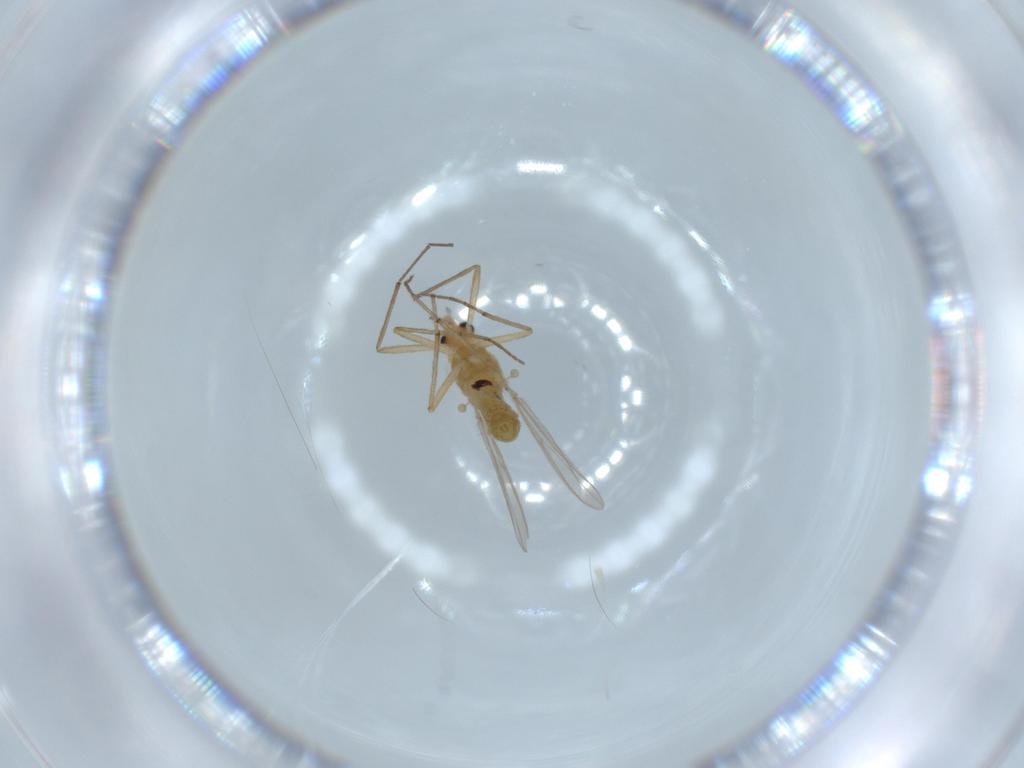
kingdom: Animalia
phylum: Arthropoda
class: Insecta
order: Diptera
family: Chironomidae
